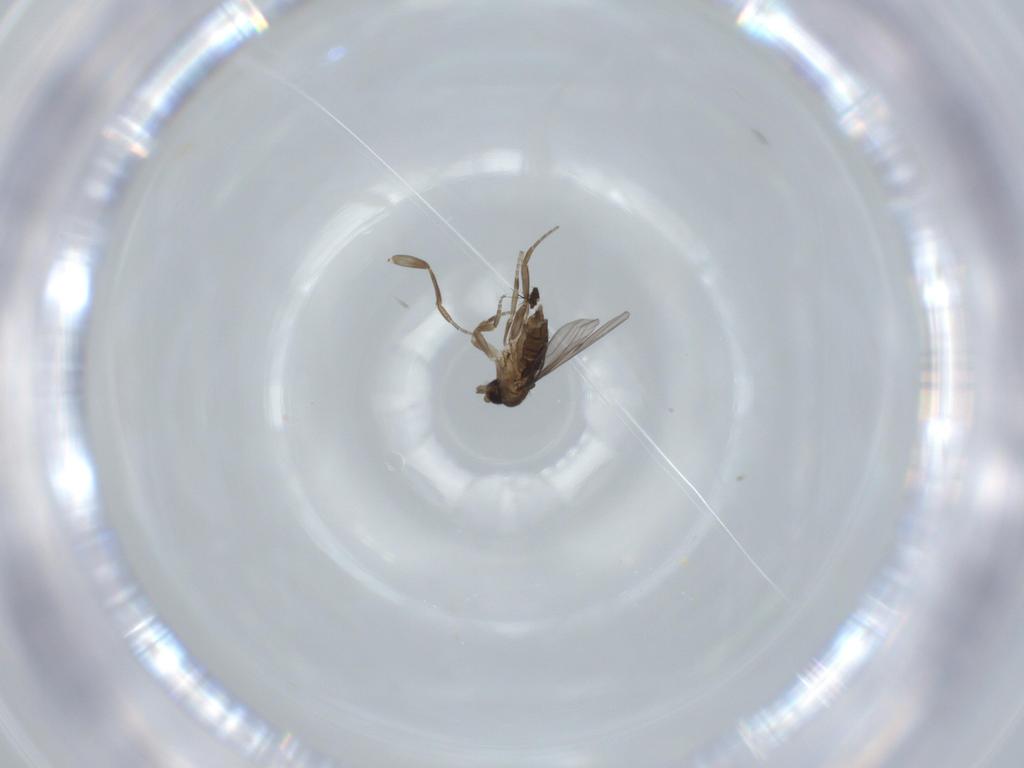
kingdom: Animalia
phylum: Arthropoda
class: Insecta
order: Diptera
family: Phoridae
